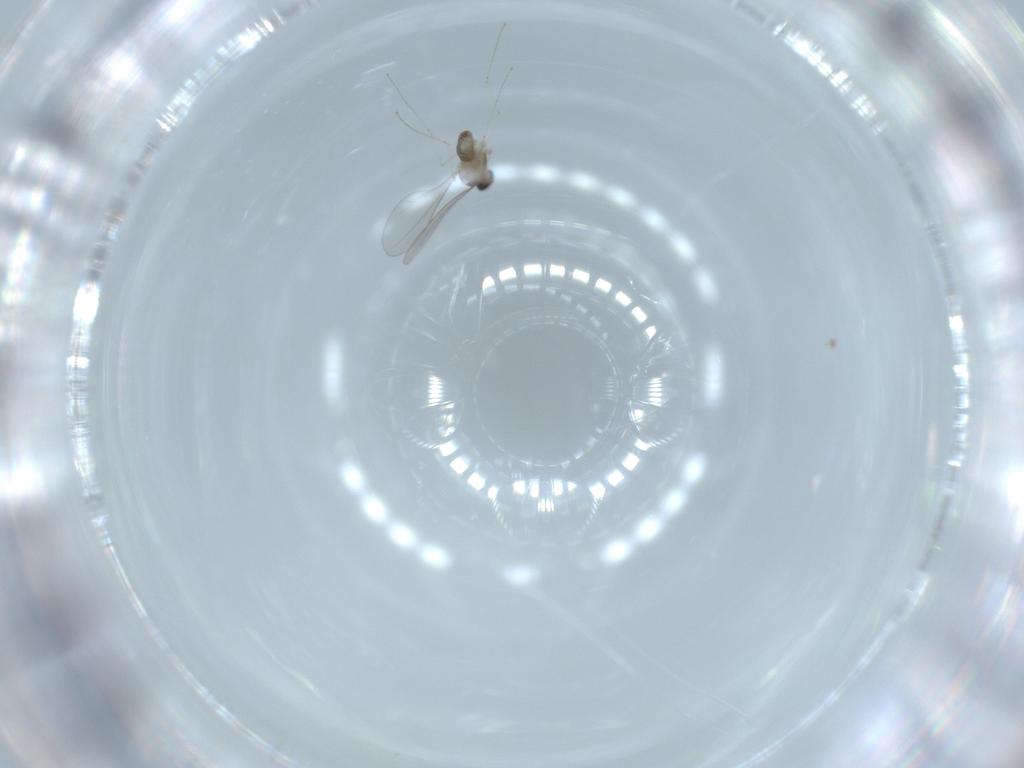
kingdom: Animalia
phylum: Arthropoda
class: Insecta
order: Diptera
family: Cecidomyiidae
